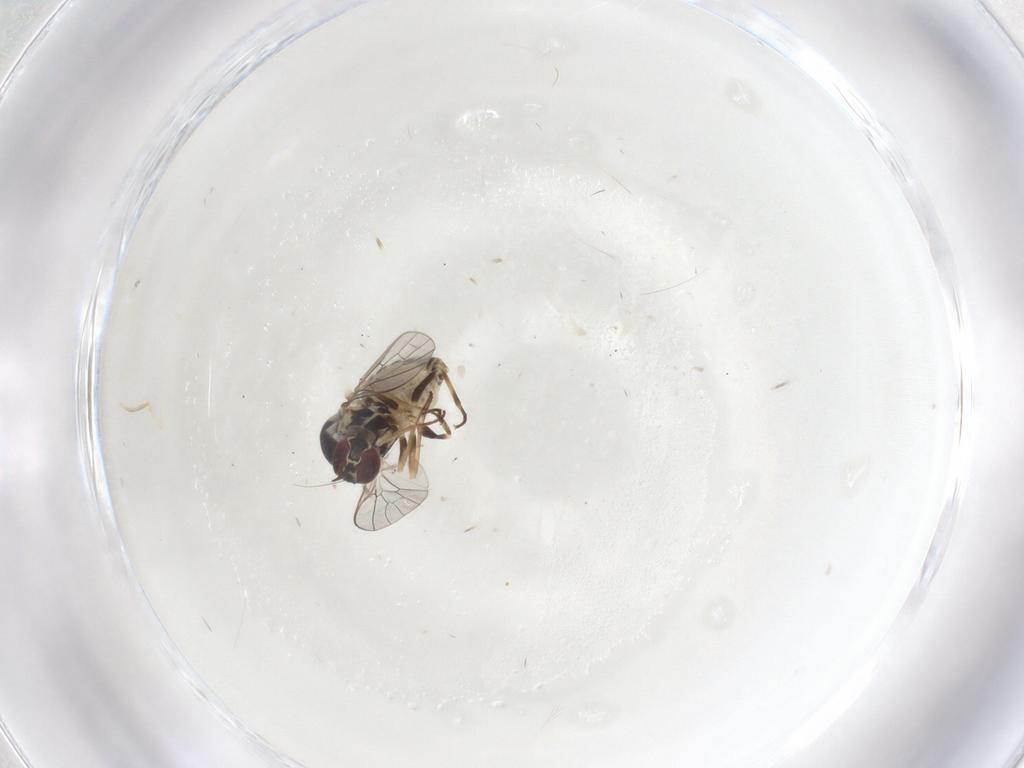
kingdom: Animalia
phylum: Arthropoda
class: Insecta
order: Diptera
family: Bombyliidae
